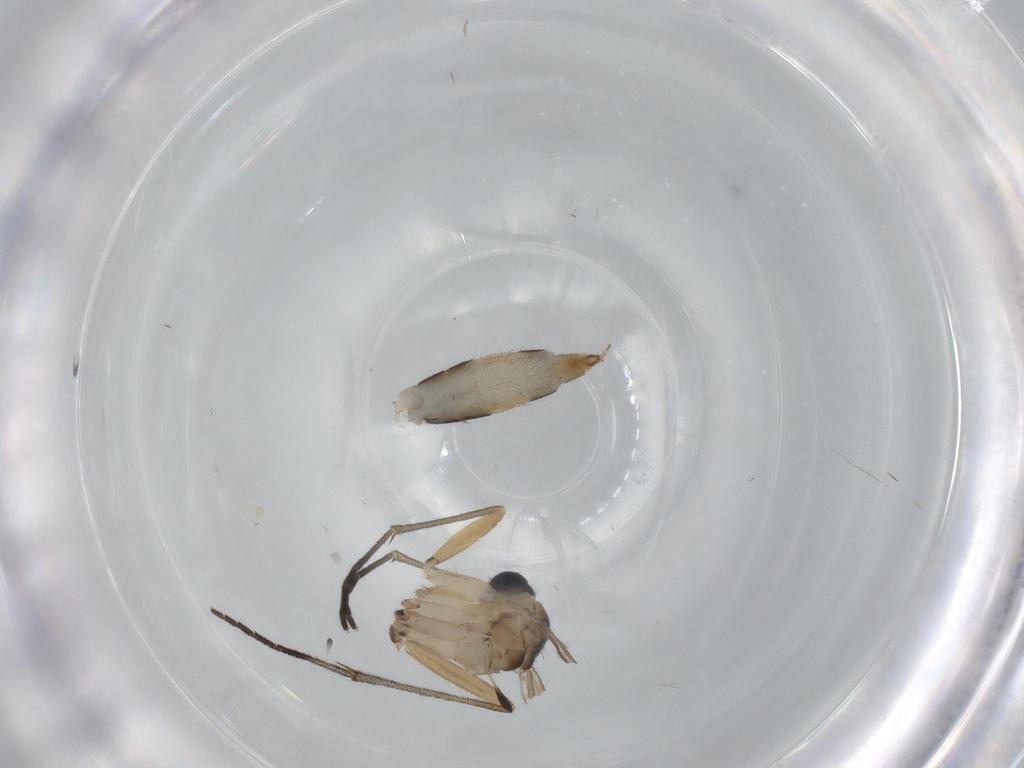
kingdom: Animalia
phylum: Arthropoda
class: Insecta
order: Diptera
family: Sciaridae
